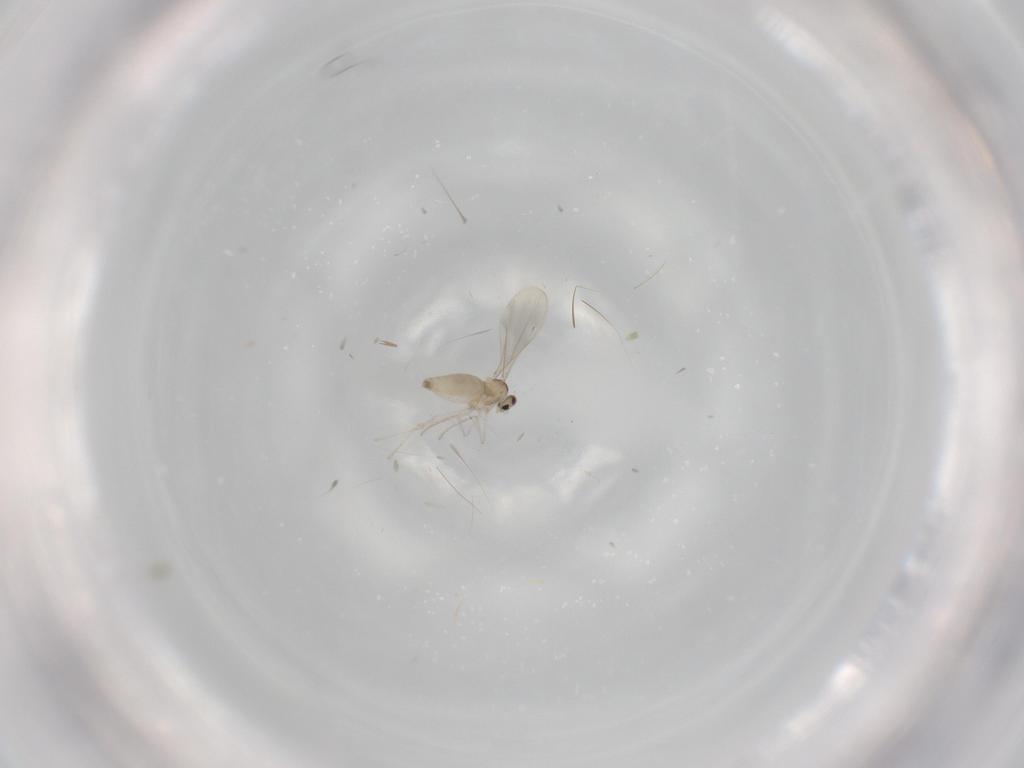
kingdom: Animalia
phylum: Arthropoda
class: Insecta
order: Diptera
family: Cecidomyiidae
